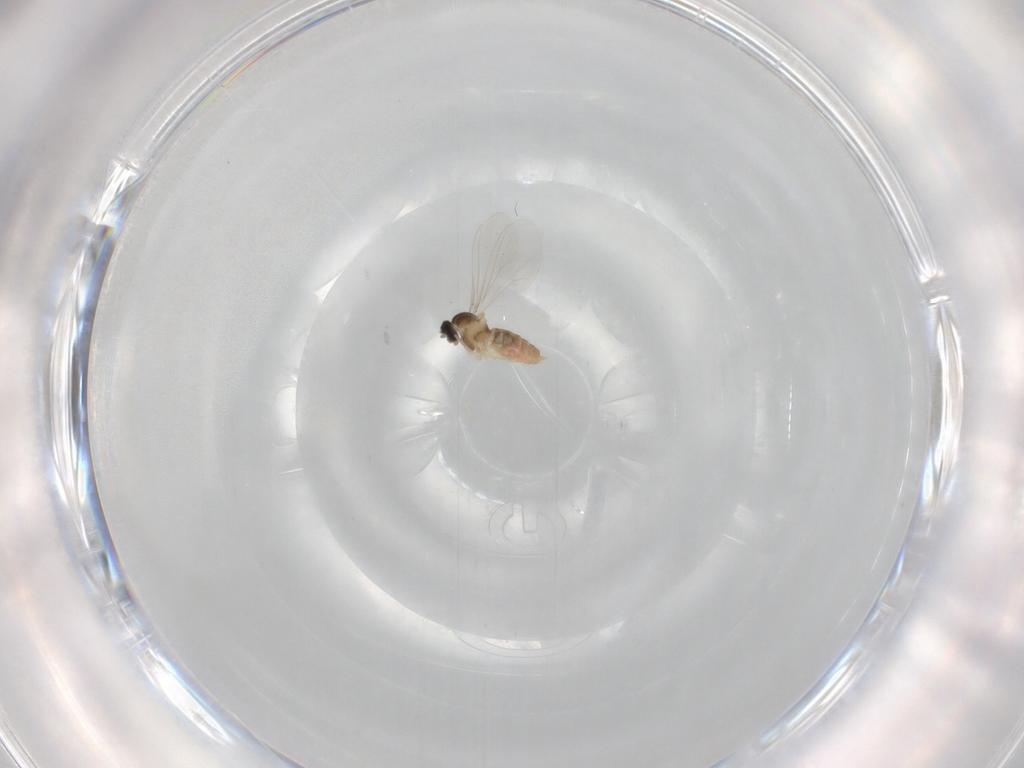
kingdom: Animalia
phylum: Arthropoda
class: Insecta
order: Diptera
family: Cecidomyiidae
